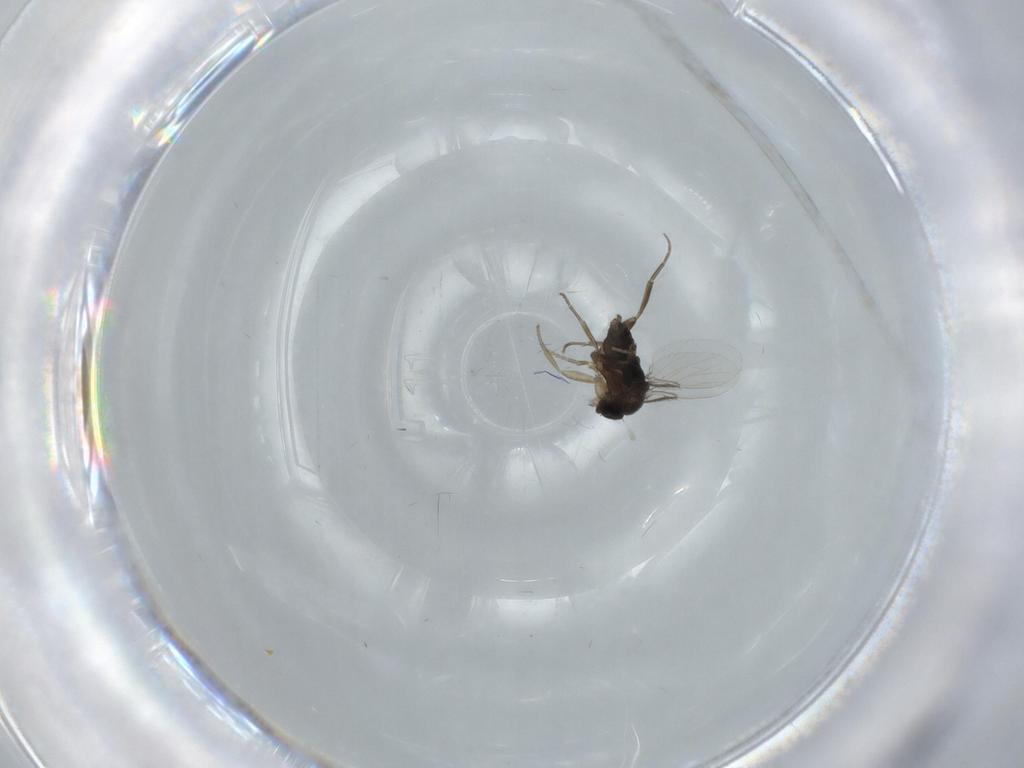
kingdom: Animalia
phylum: Arthropoda
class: Insecta
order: Diptera
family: Phoridae
